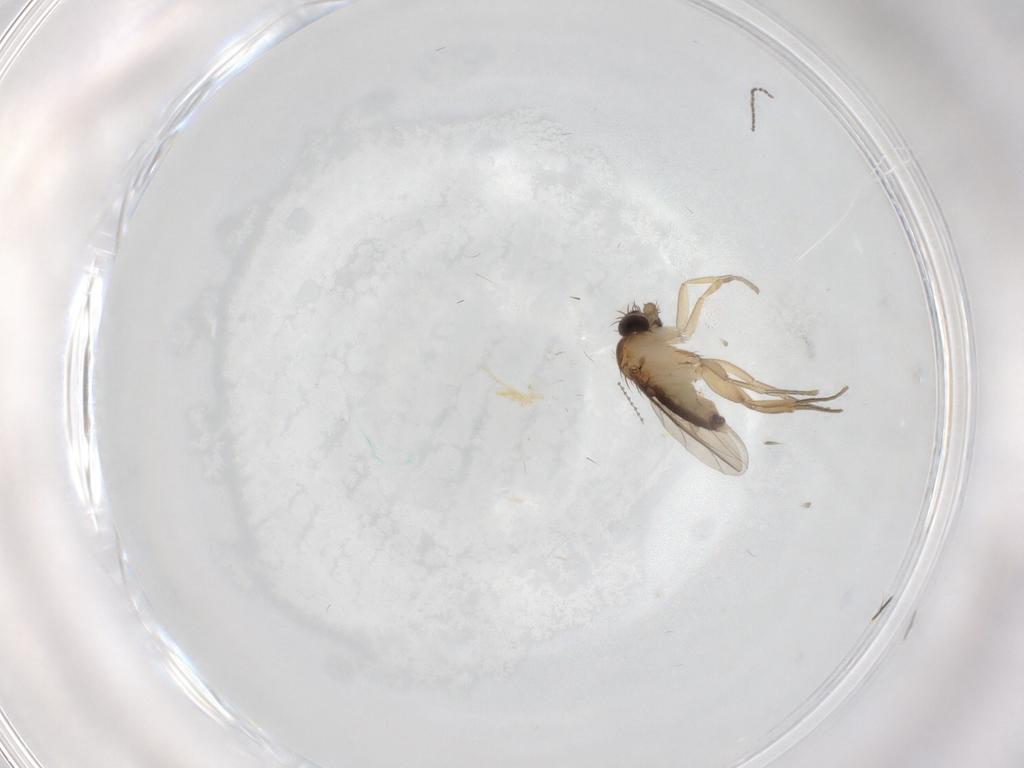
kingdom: Animalia
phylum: Arthropoda
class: Insecta
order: Diptera
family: Phoridae
